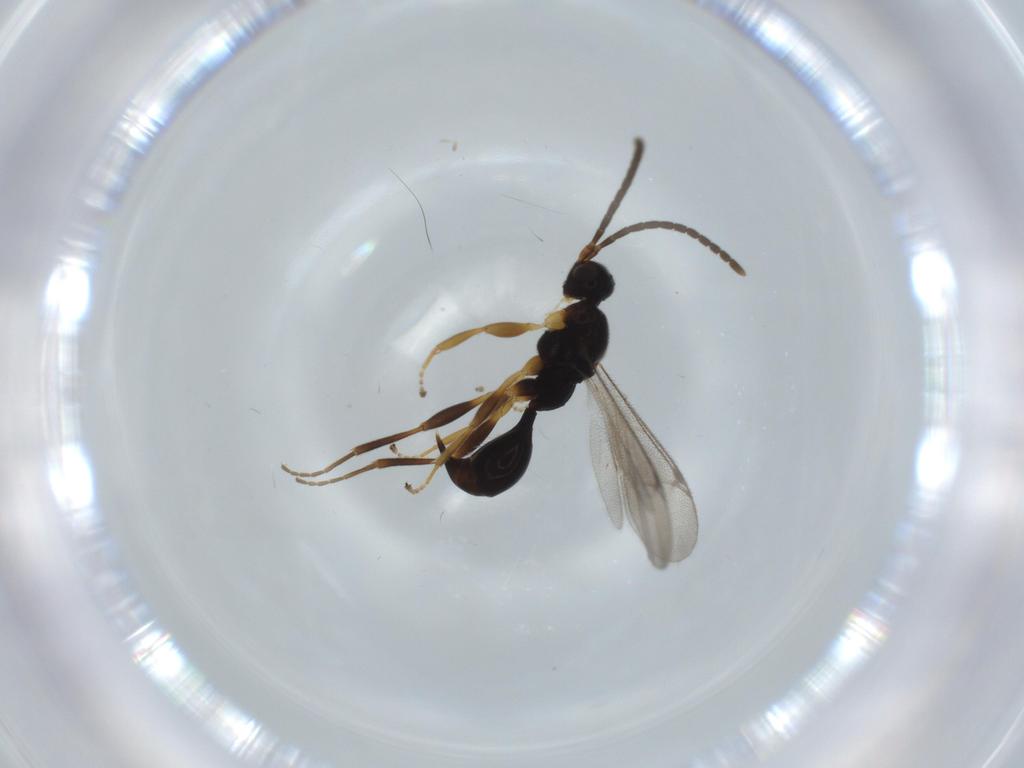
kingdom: Animalia
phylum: Arthropoda
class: Insecta
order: Hymenoptera
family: Proctotrupidae
